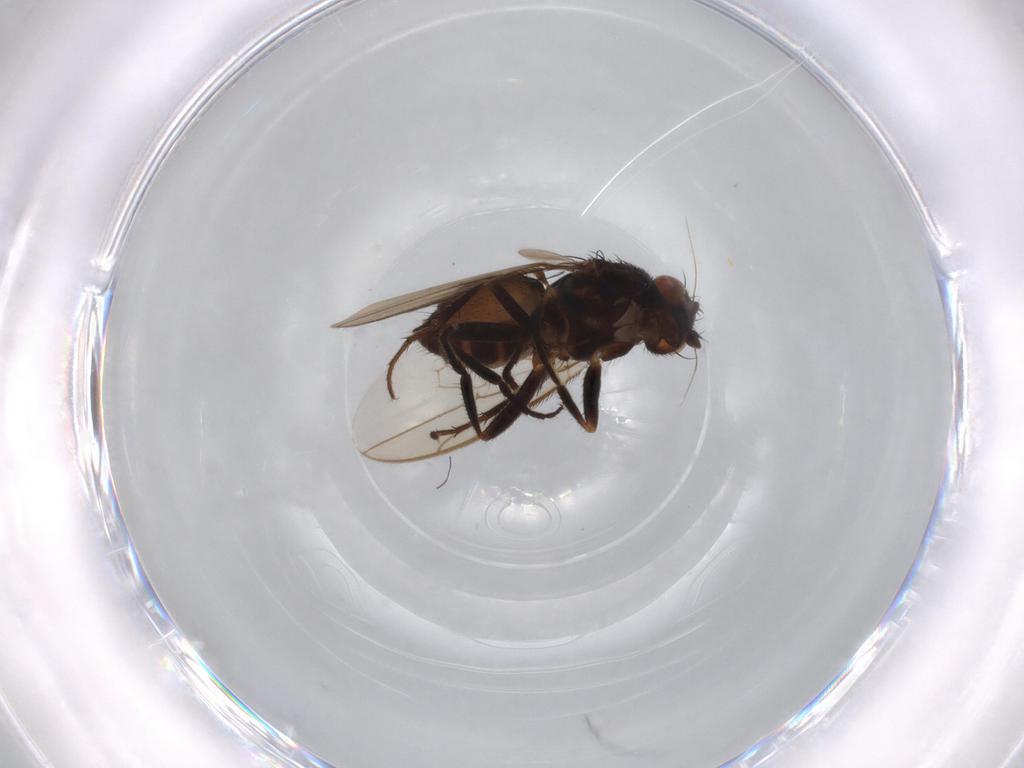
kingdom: Animalia
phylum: Arthropoda
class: Insecta
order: Diptera
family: Sphaeroceridae
